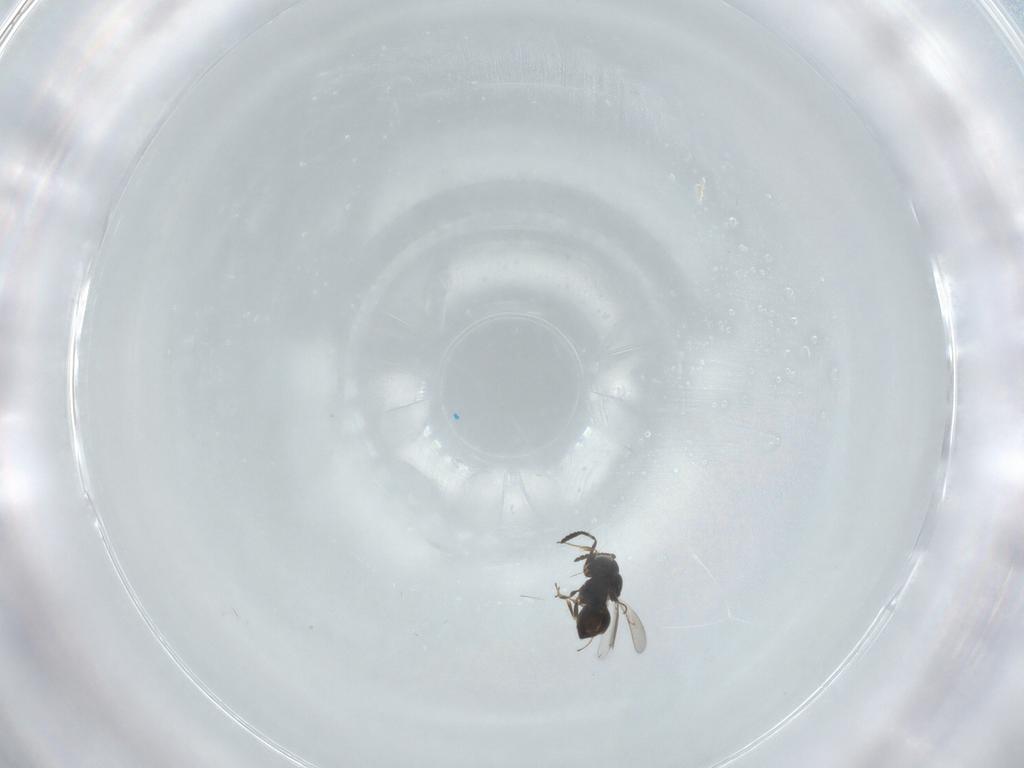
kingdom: Animalia
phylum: Arthropoda
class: Insecta
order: Hymenoptera
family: Scelionidae
